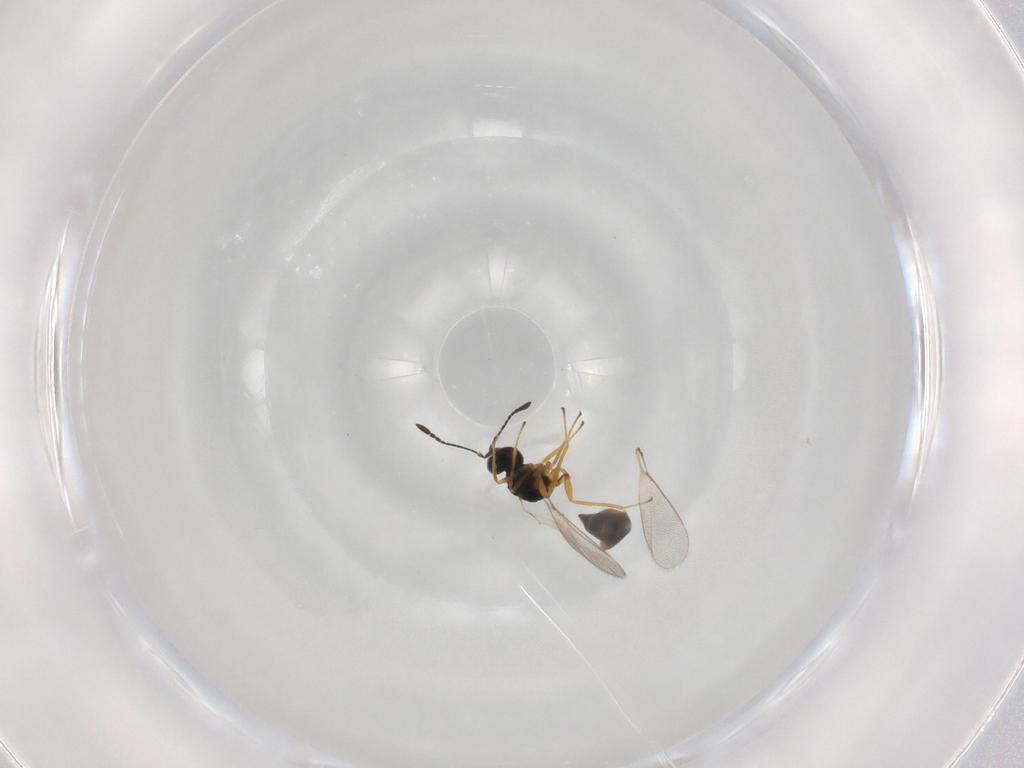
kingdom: Animalia
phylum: Arthropoda
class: Insecta
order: Hymenoptera
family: Mymaridae
